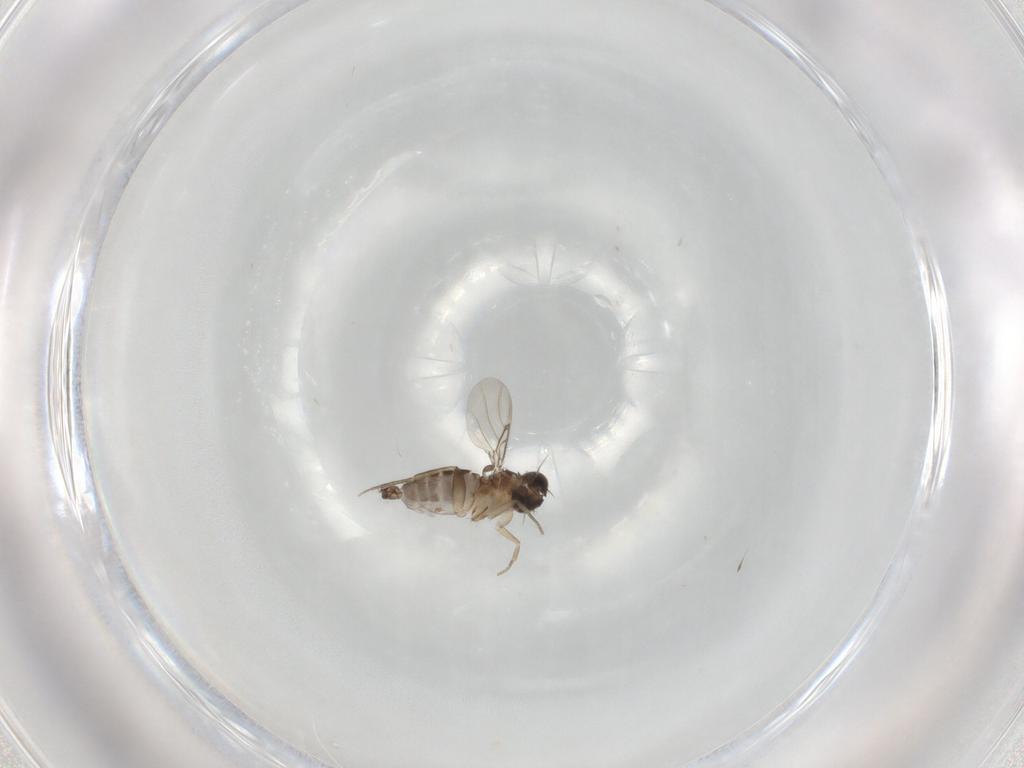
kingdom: Animalia
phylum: Arthropoda
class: Insecta
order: Diptera
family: Phoridae
